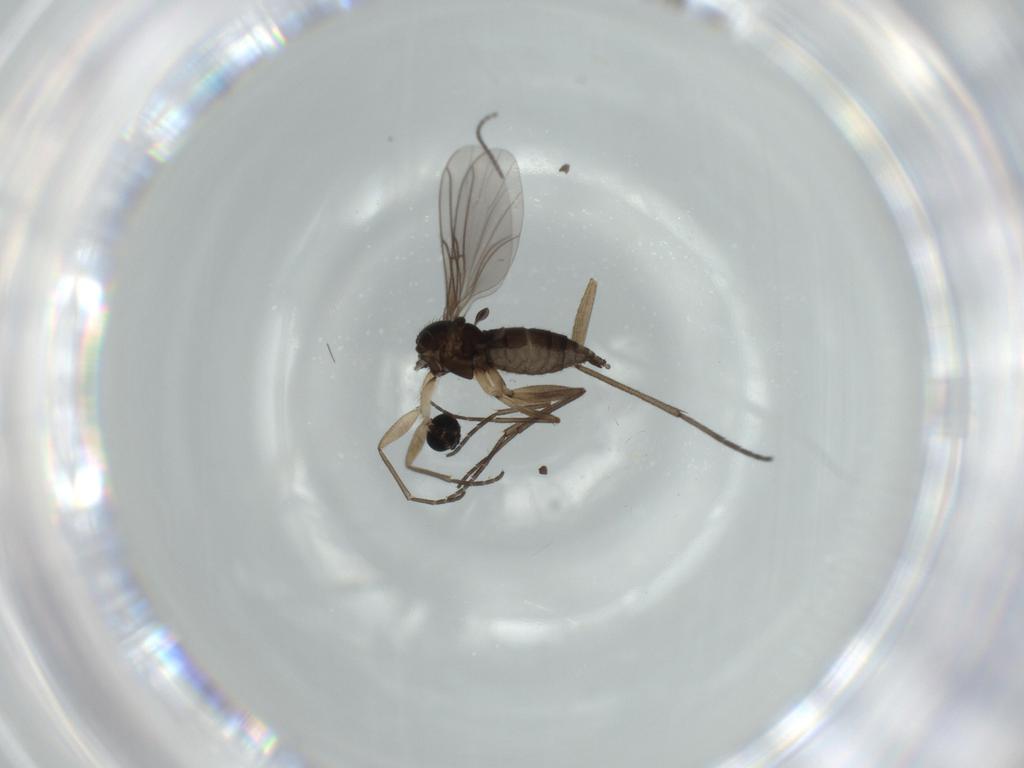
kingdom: Animalia
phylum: Arthropoda
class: Insecta
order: Diptera
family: Sciaridae
